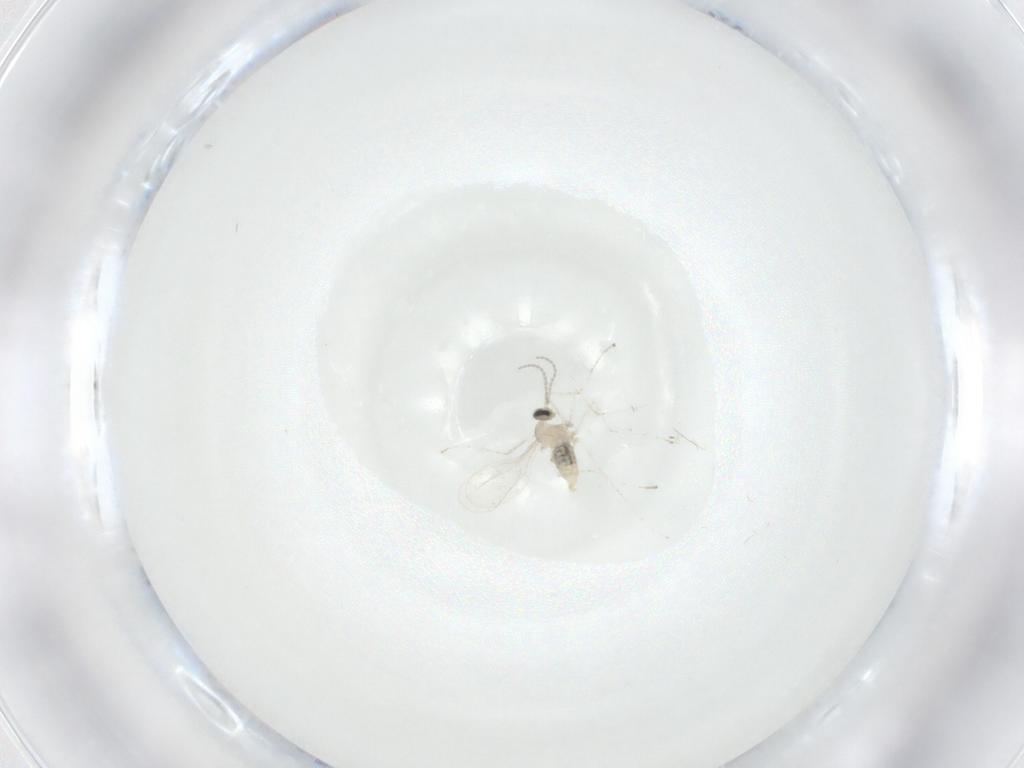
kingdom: Animalia
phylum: Arthropoda
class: Insecta
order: Diptera
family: Cecidomyiidae
